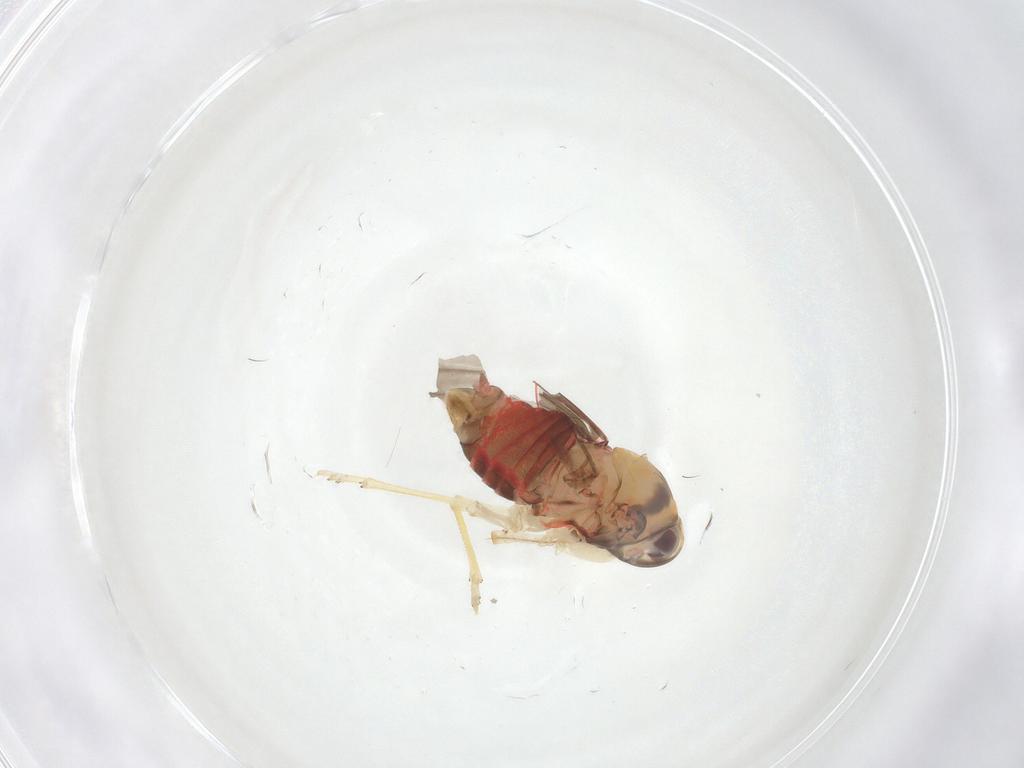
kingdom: Animalia
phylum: Arthropoda
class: Insecta
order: Hemiptera
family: Derbidae
